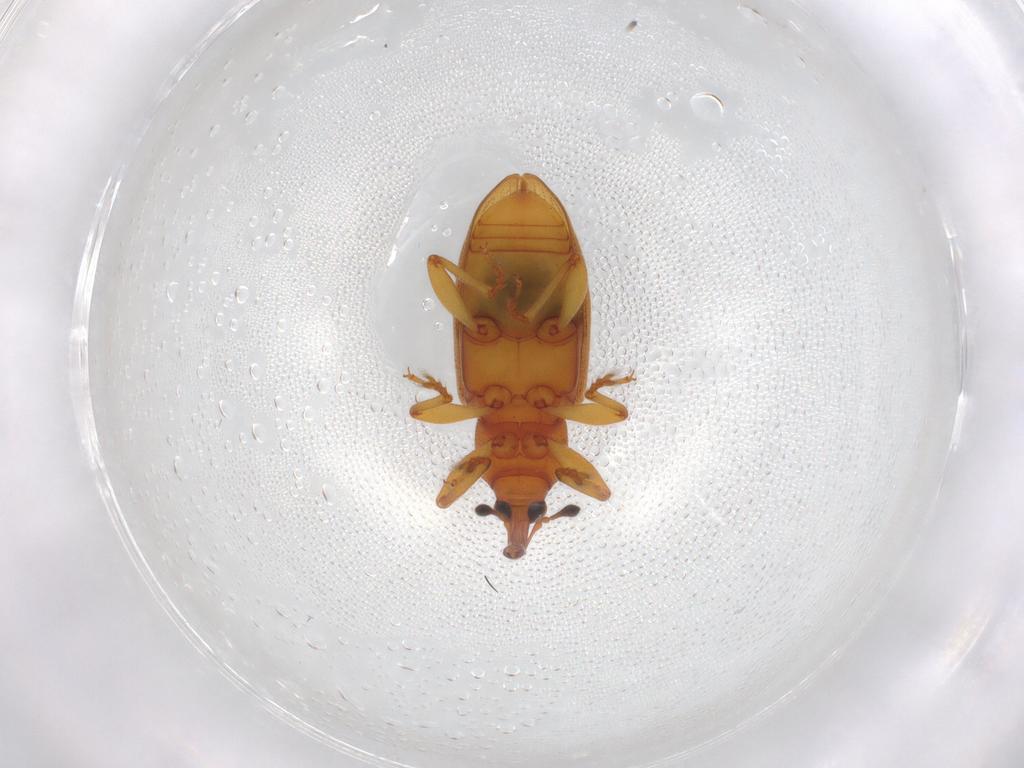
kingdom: Animalia
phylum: Arthropoda
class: Insecta
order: Coleoptera
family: Curculionidae
